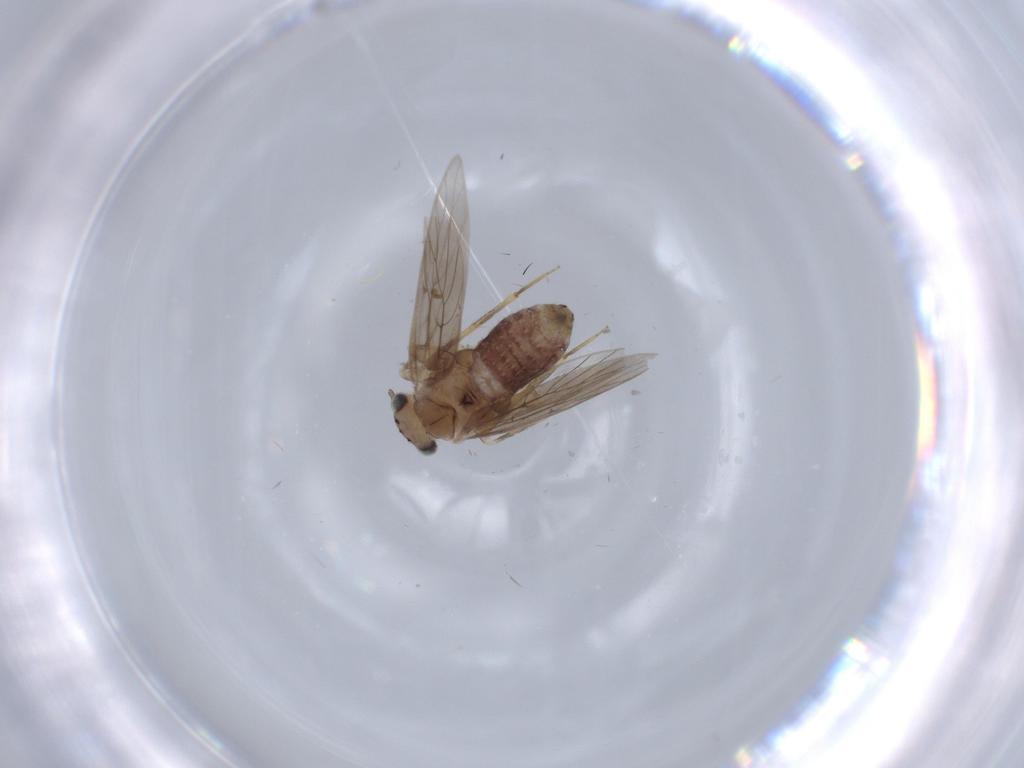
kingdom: Animalia
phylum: Arthropoda
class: Insecta
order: Psocodea
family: Lepidopsocidae
